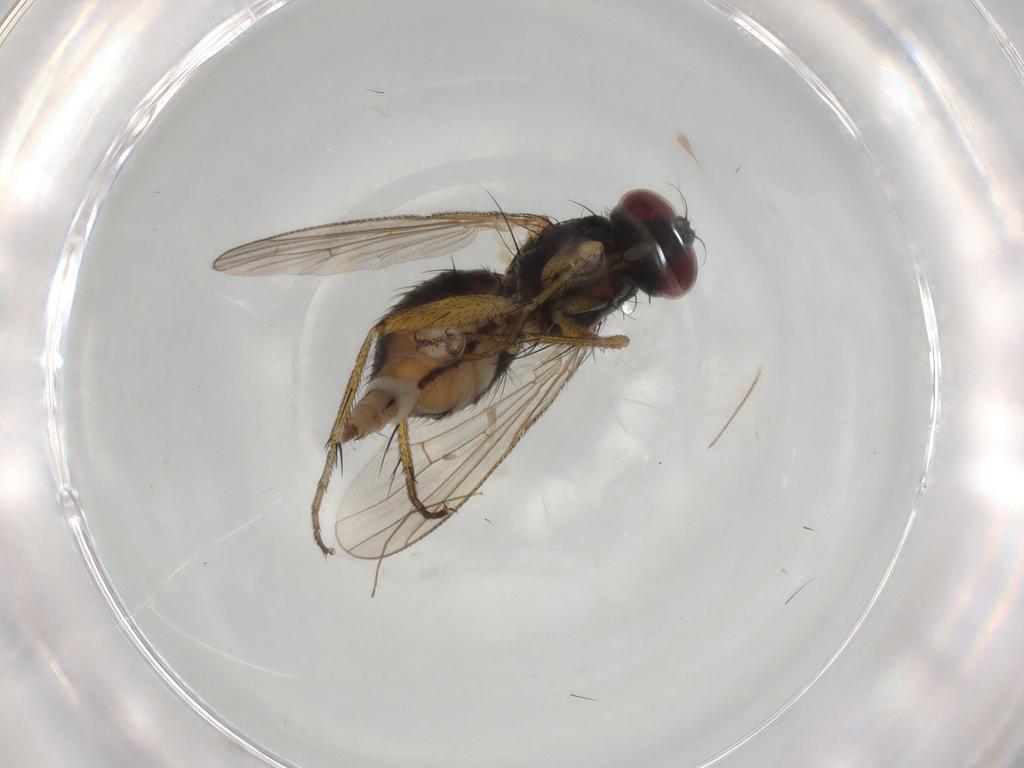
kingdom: Animalia
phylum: Arthropoda
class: Insecta
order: Diptera
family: Muscidae
